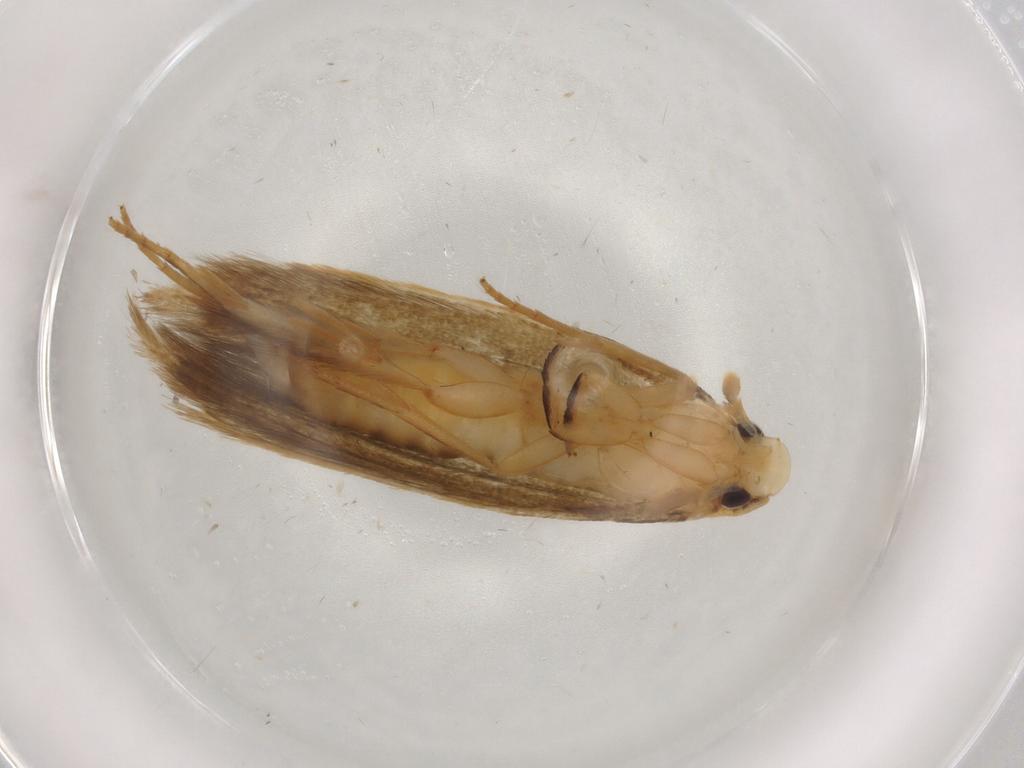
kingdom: Animalia
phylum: Arthropoda
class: Insecta
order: Lepidoptera
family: Tineidae
